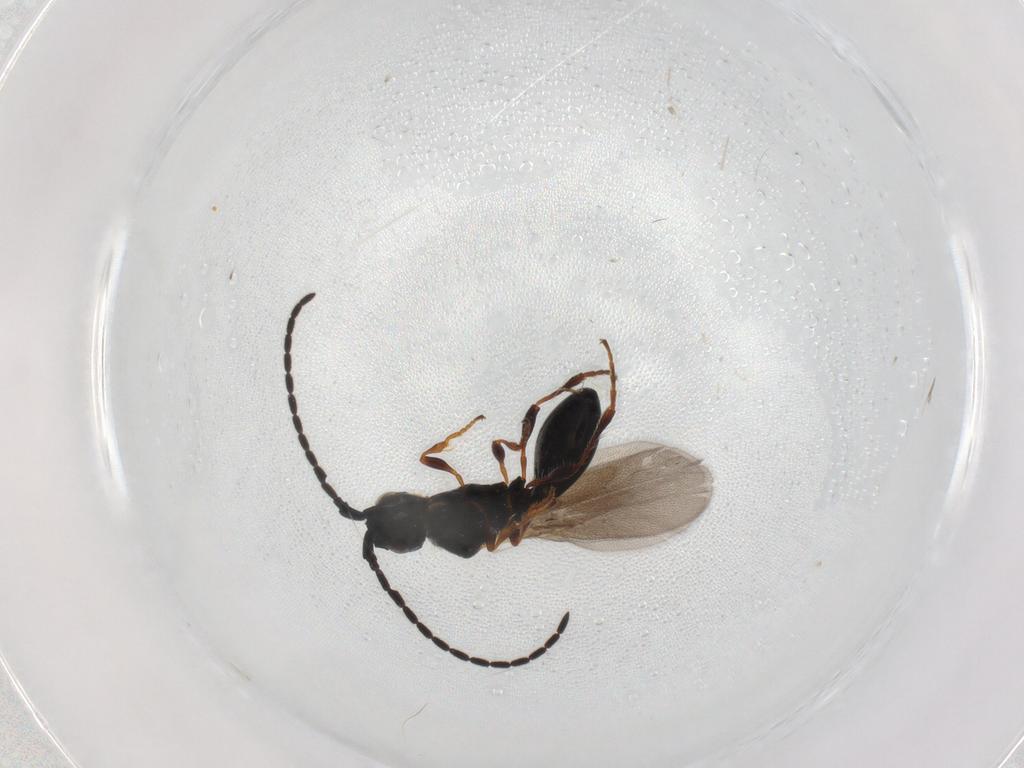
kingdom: Animalia
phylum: Arthropoda
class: Insecta
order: Hymenoptera
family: Diapriidae
